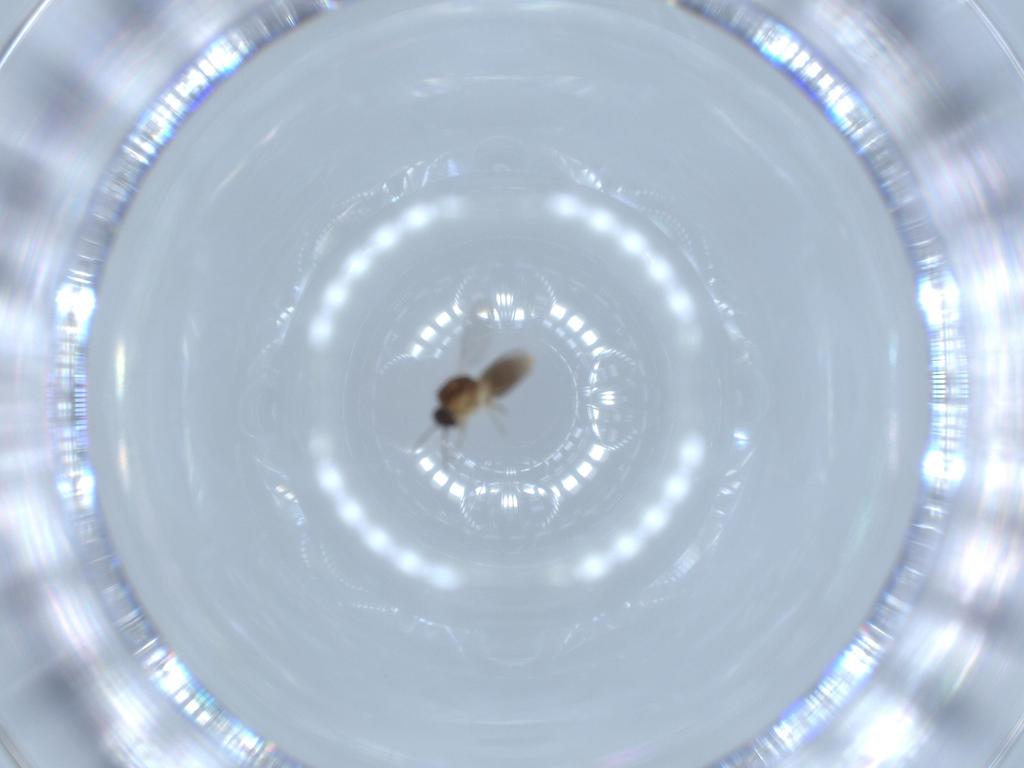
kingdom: Animalia
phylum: Arthropoda
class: Insecta
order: Diptera
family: Ceratopogonidae
